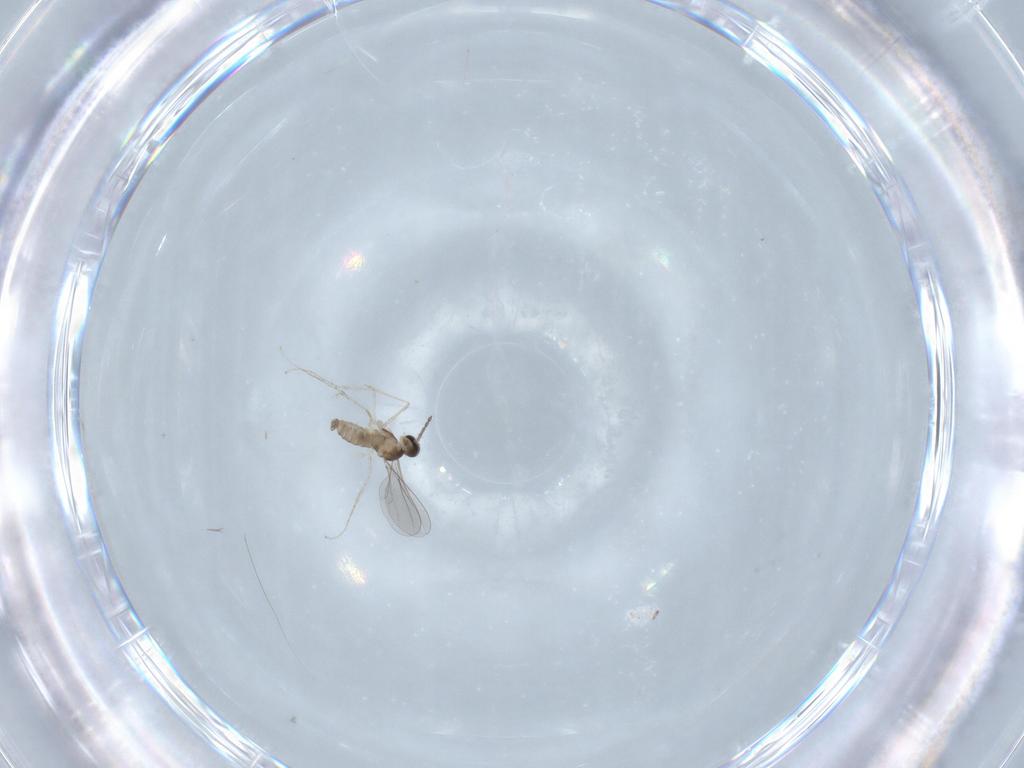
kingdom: Animalia
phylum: Arthropoda
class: Insecta
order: Diptera
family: Cecidomyiidae
